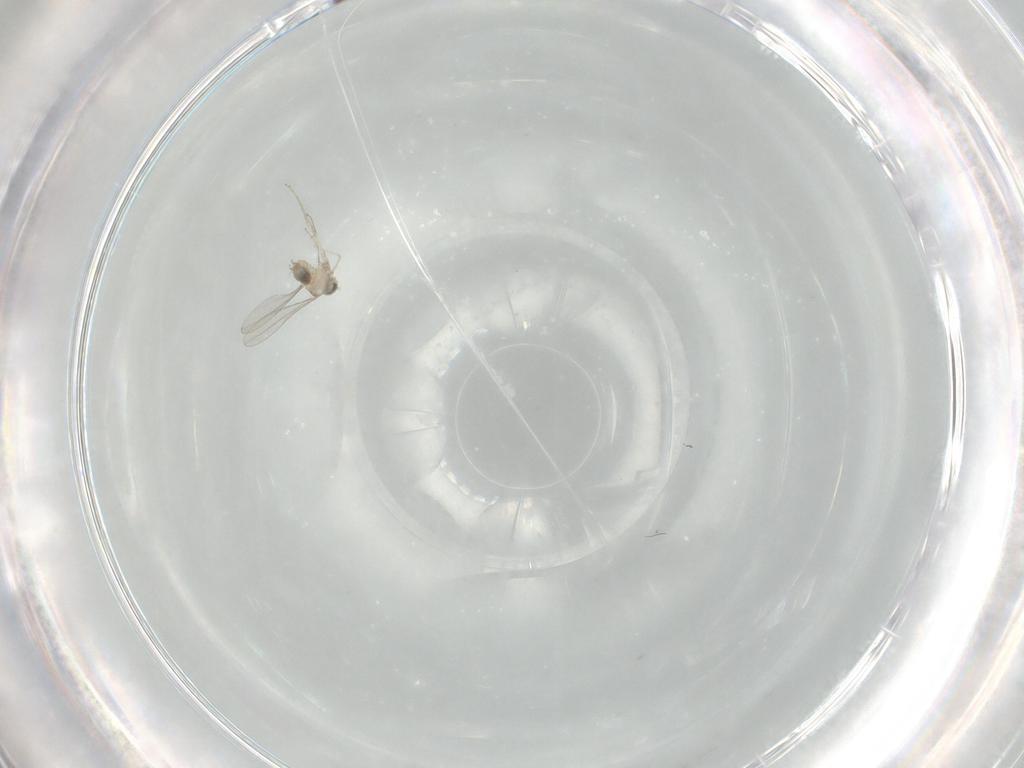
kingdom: Animalia
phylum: Arthropoda
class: Insecta
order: Diptera
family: Cecidomyiidae
